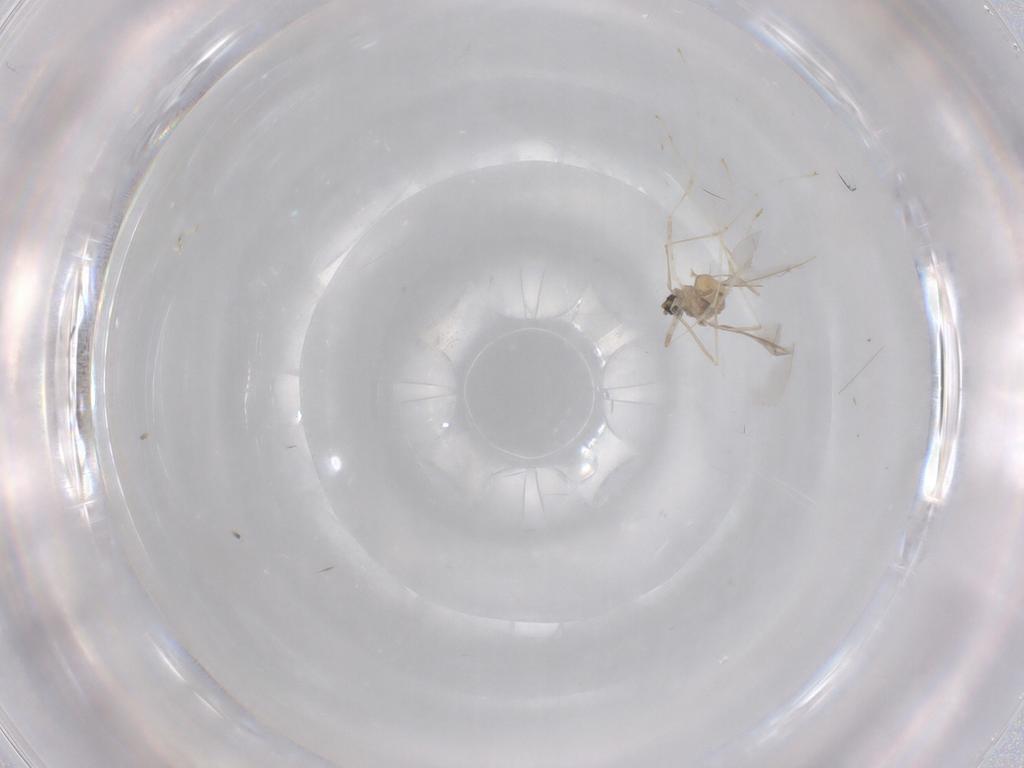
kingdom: Animalia
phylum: Arthropoda
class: Insecta
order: Diptera
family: Cecidomyiidae
